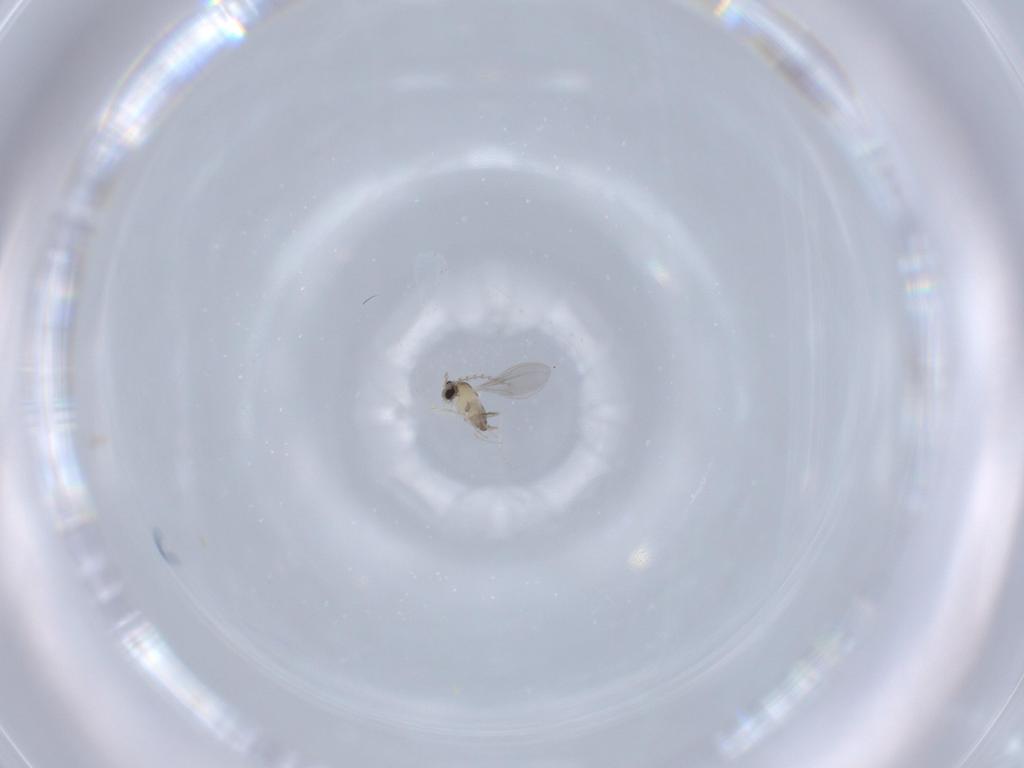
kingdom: Animalia
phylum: Arthropoda
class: Insecta
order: Diptera
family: Cecidomyiidae
